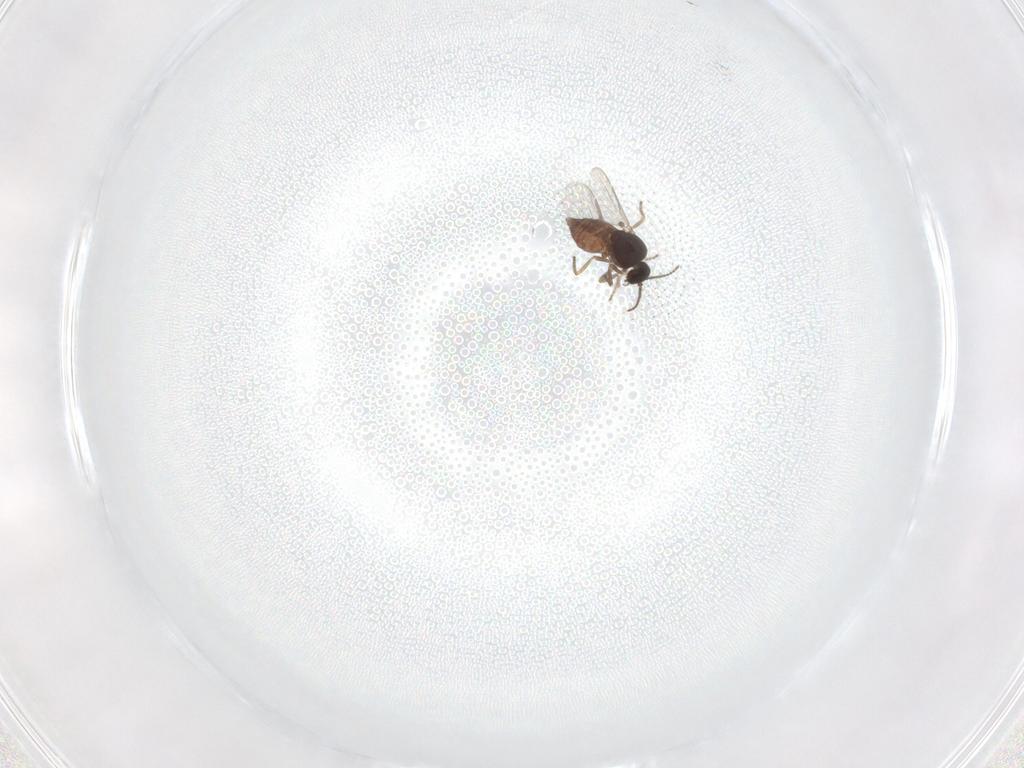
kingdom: Animalia
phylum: Arthropoda
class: Insecta
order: Diptera
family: Ceratopogonidae
